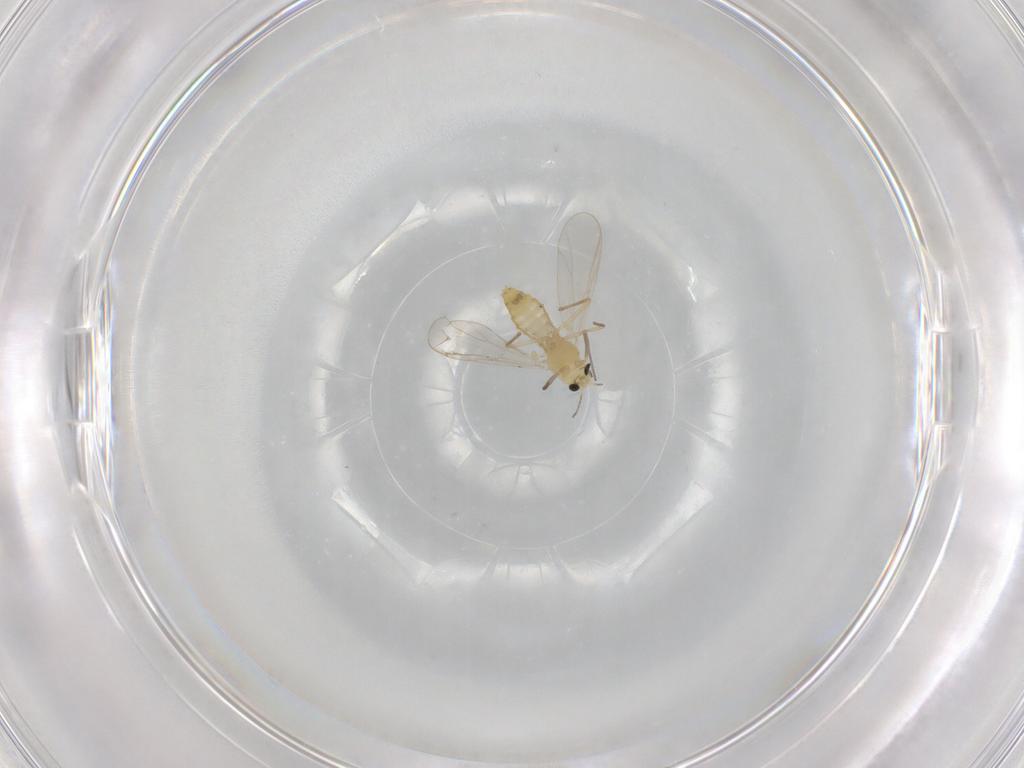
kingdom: Animalia
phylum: Arthropoda
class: Insecta
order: Diptera
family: Chironomidae
